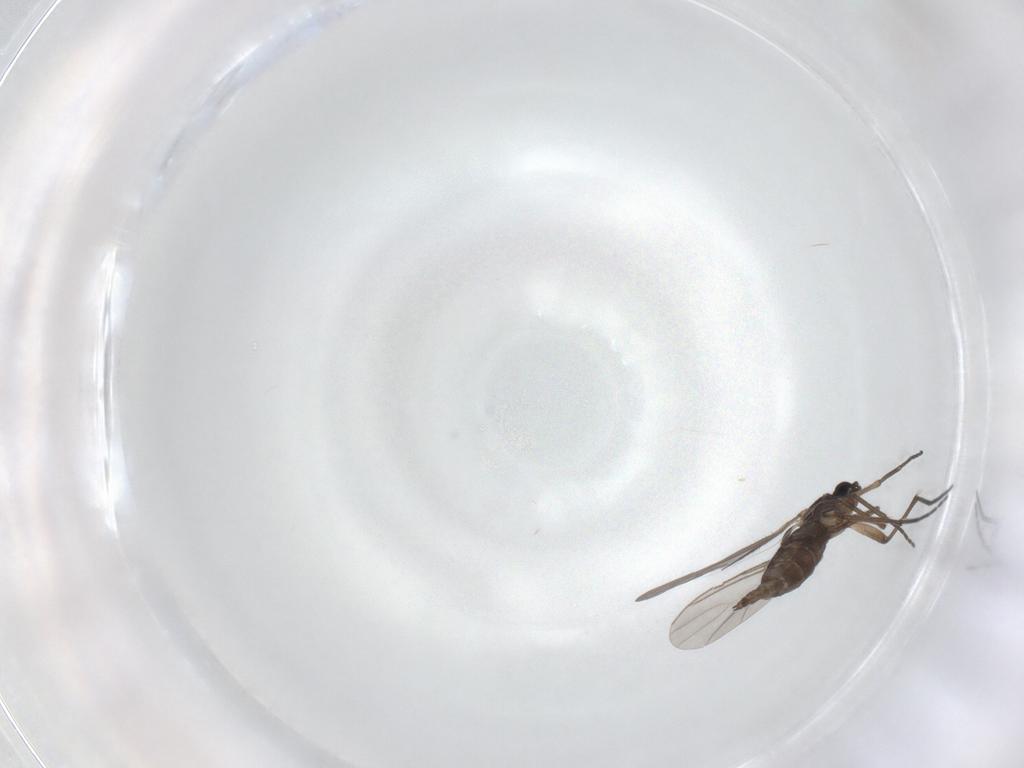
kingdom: Animalia
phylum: Arthropoda
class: Insecta
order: Diptera
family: Sciaridae
